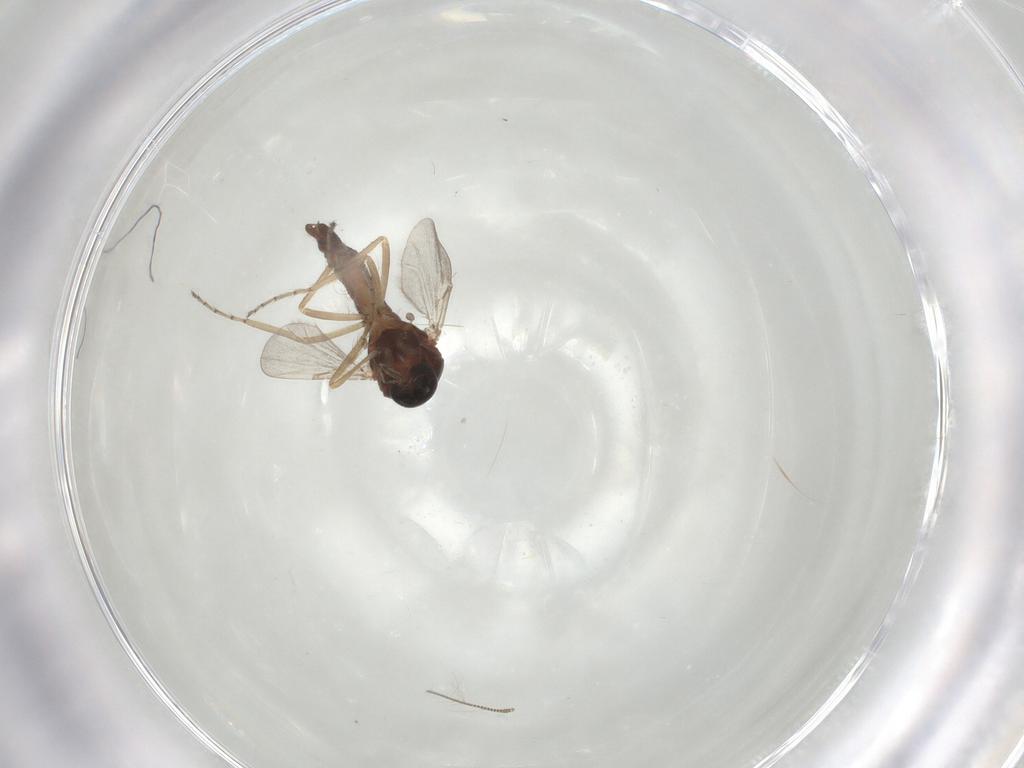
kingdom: Animalia
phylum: Arthropoda
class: Insecta
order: Diptera
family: Ceratopogonidae
